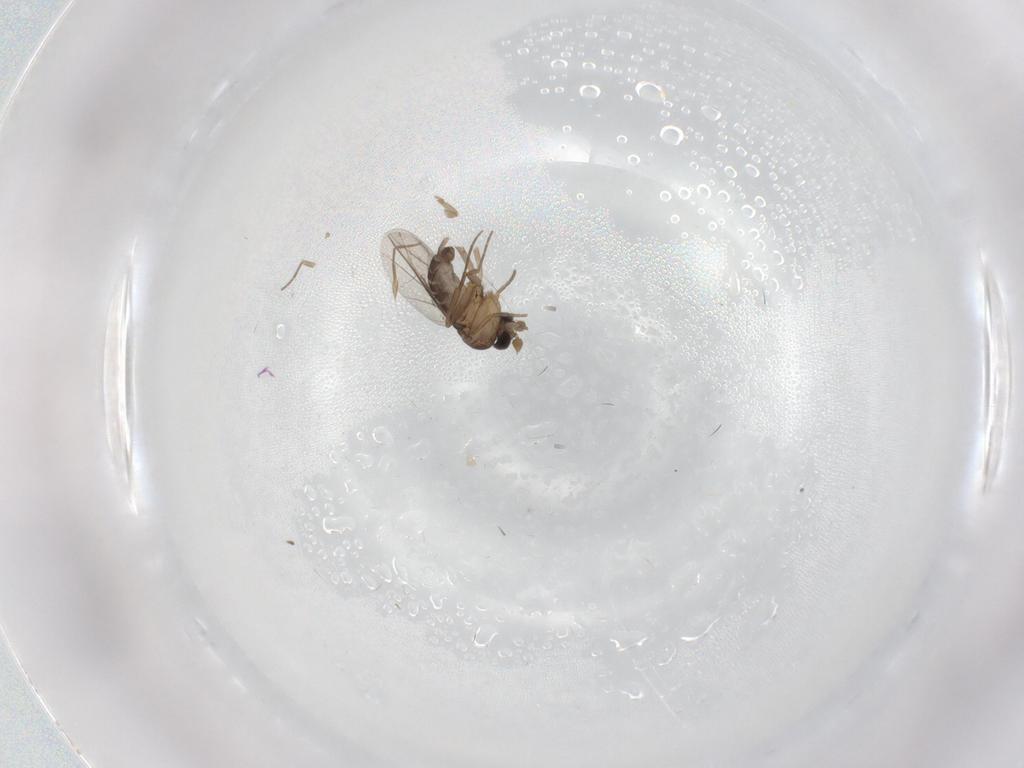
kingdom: Animalia
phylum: Arthropoda
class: Insecta
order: Diptera
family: Phoridae
